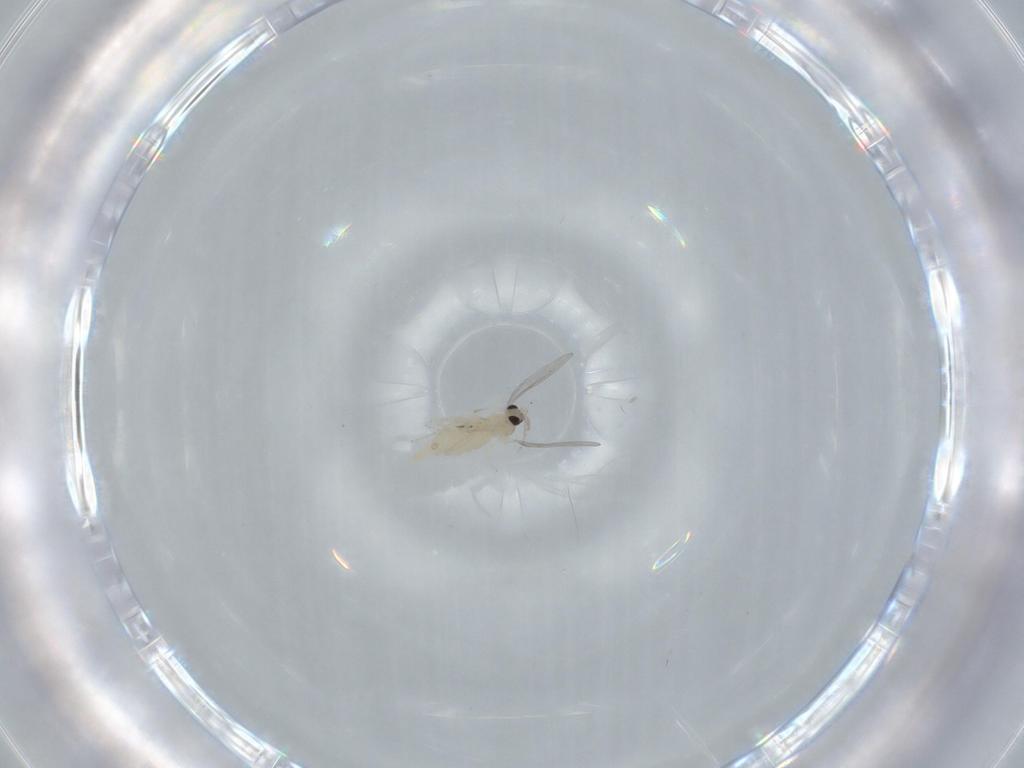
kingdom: Animalia
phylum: Arthropoda
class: Insecta
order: Diptera
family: Cecidomyiidae
